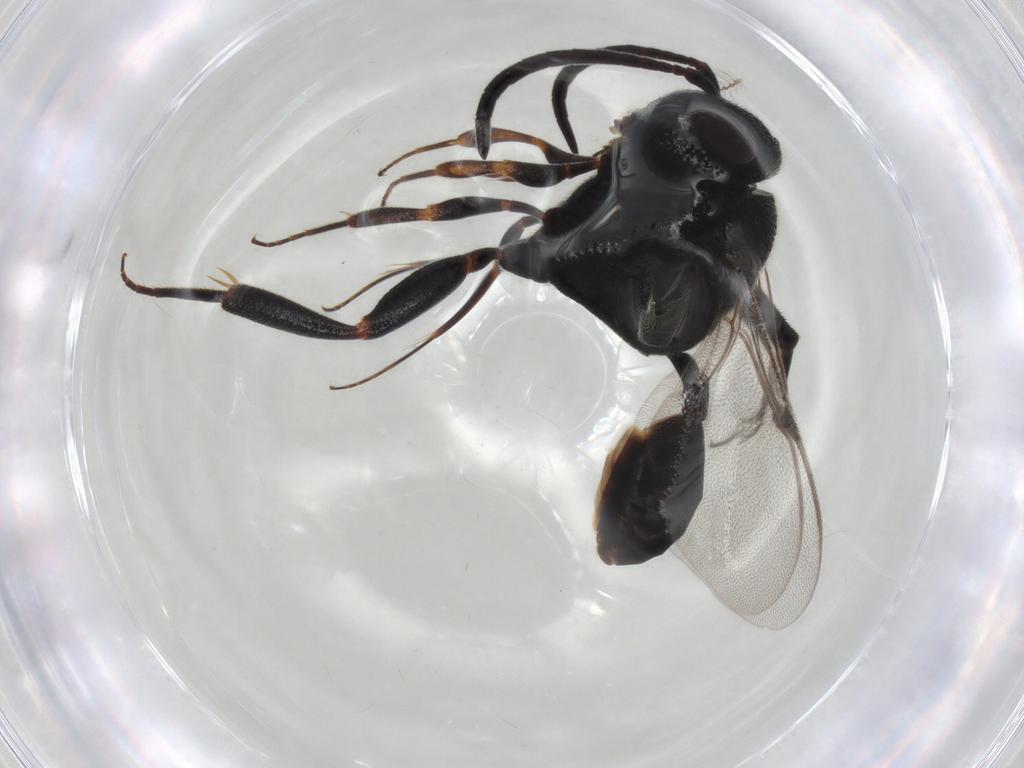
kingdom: Animalia
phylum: Arthropoda
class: Insecta
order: Hymenoptera
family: Evaniidae
